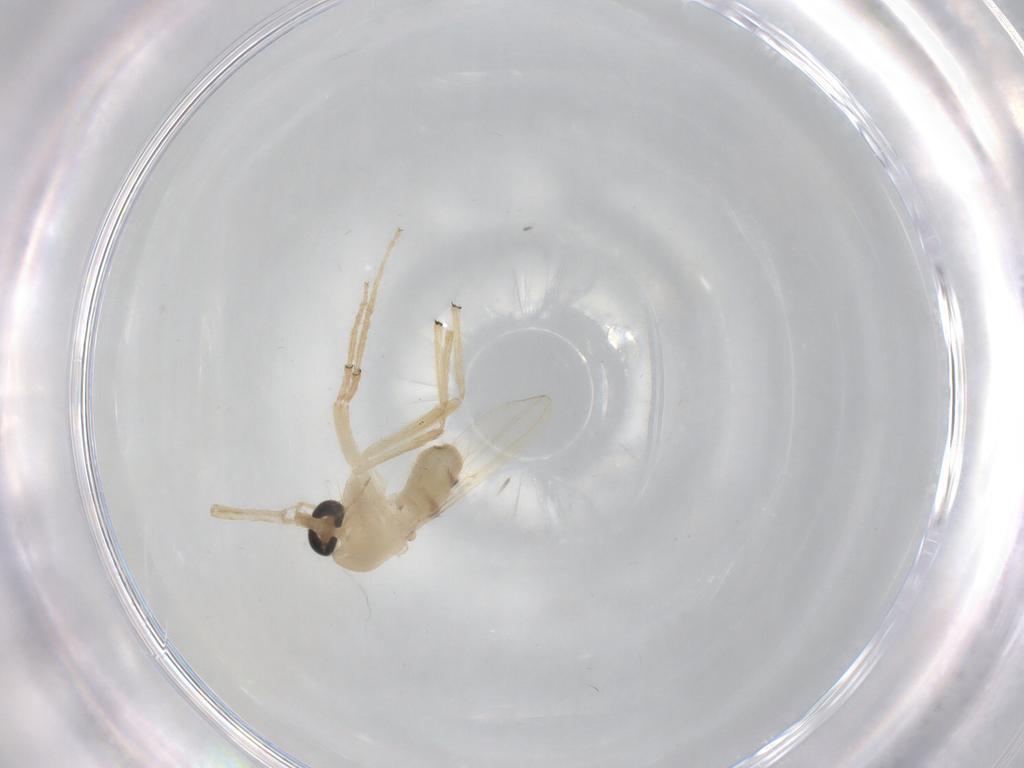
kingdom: Animalia
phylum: Arthropoda
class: Insecta
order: Diptera
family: Chironomidae
